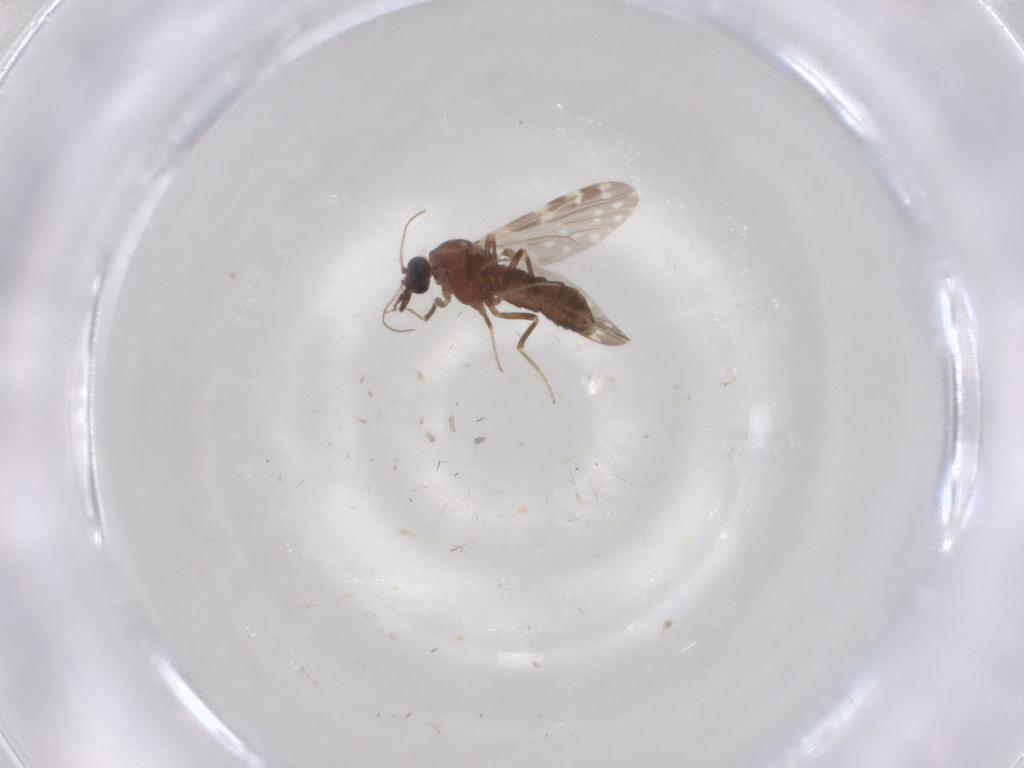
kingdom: Animalia
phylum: Arthropoda
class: Insecta
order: Diptera
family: Ceratopogonidae
